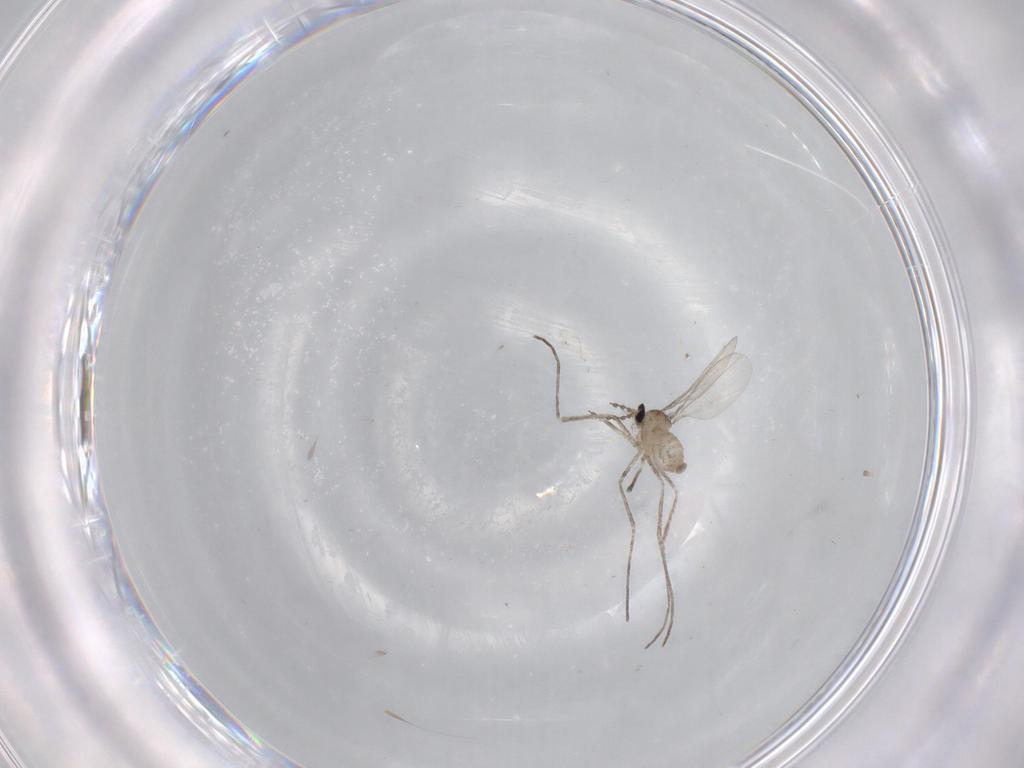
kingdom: Animalia
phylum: Arthropoda
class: Insecta
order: Diptera
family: Cecidomyiidae
